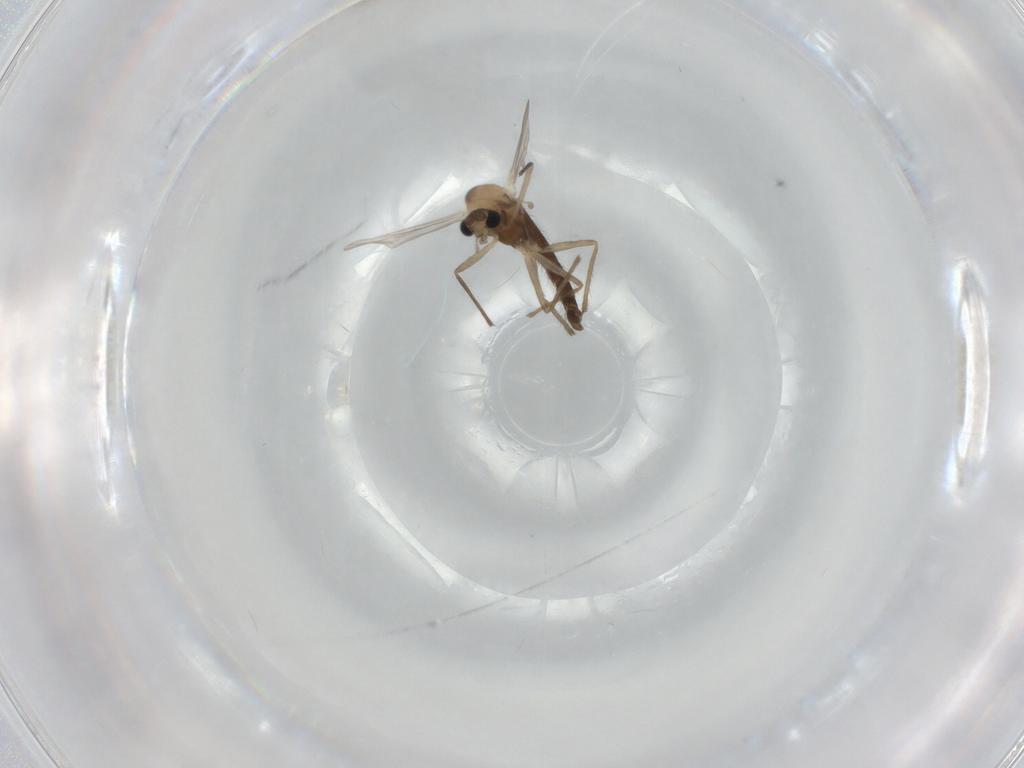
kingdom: Animalia
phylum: Arthropoda
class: Insecta
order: Diptera
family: Chironomidae
